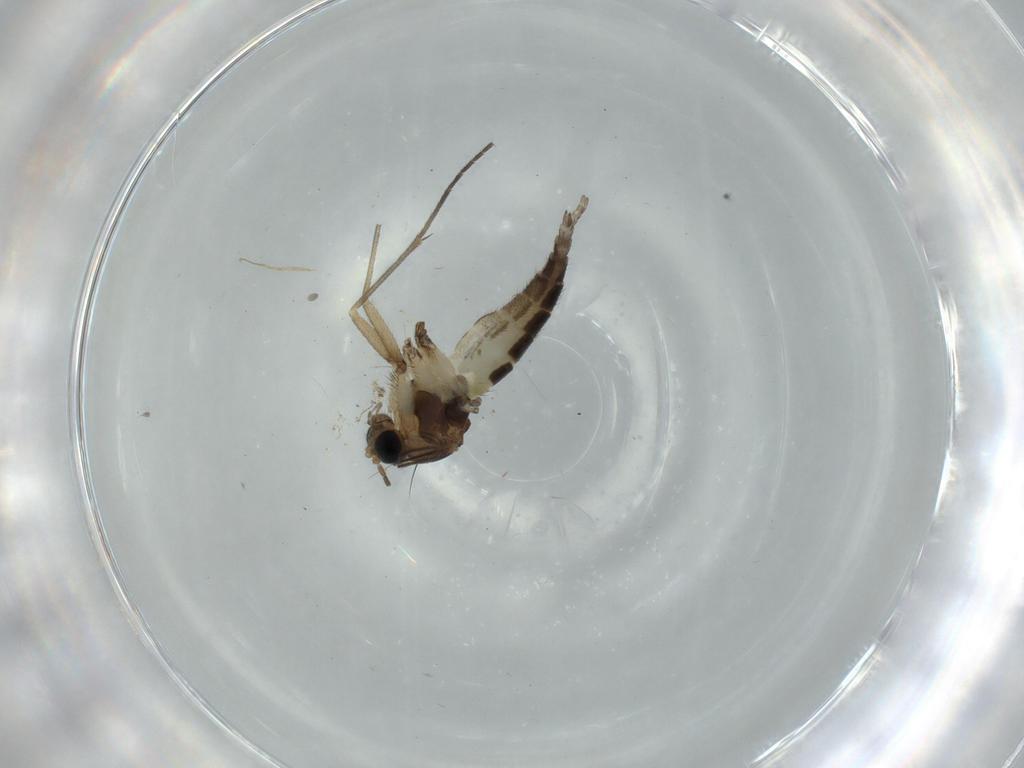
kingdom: Animalia
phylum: Arthropoda
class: Insecta
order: Diptera
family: Sciaridae
